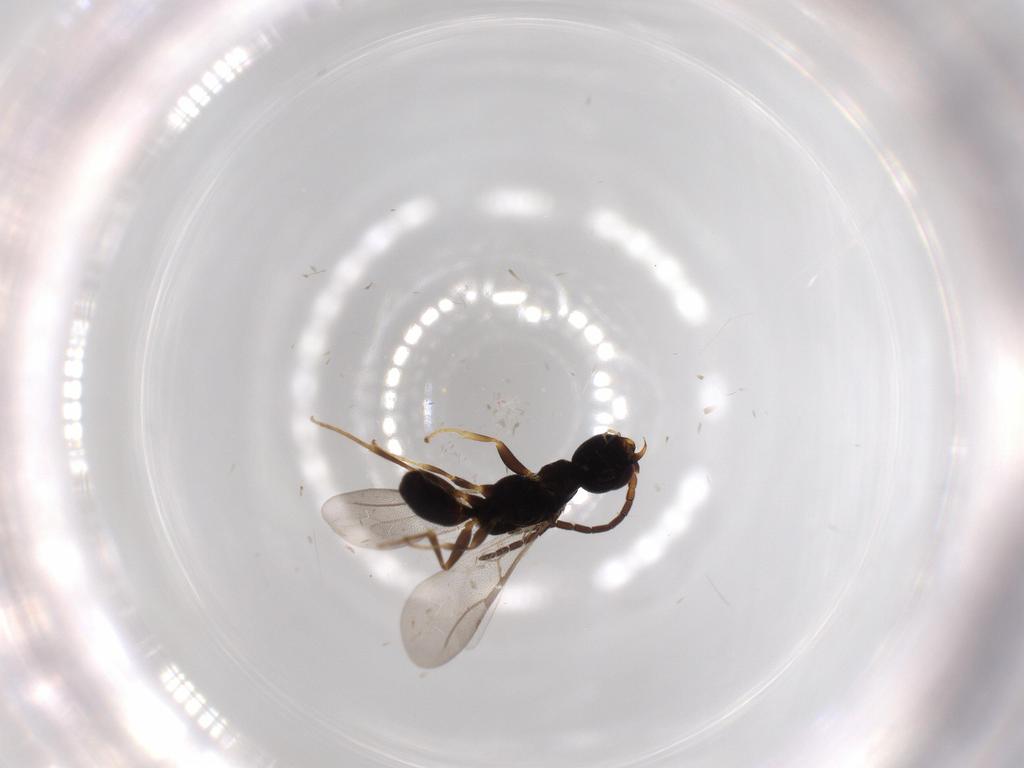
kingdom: Animalia
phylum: Arthropoda
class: Insecta
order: Hymenoptera
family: Bethylidae
